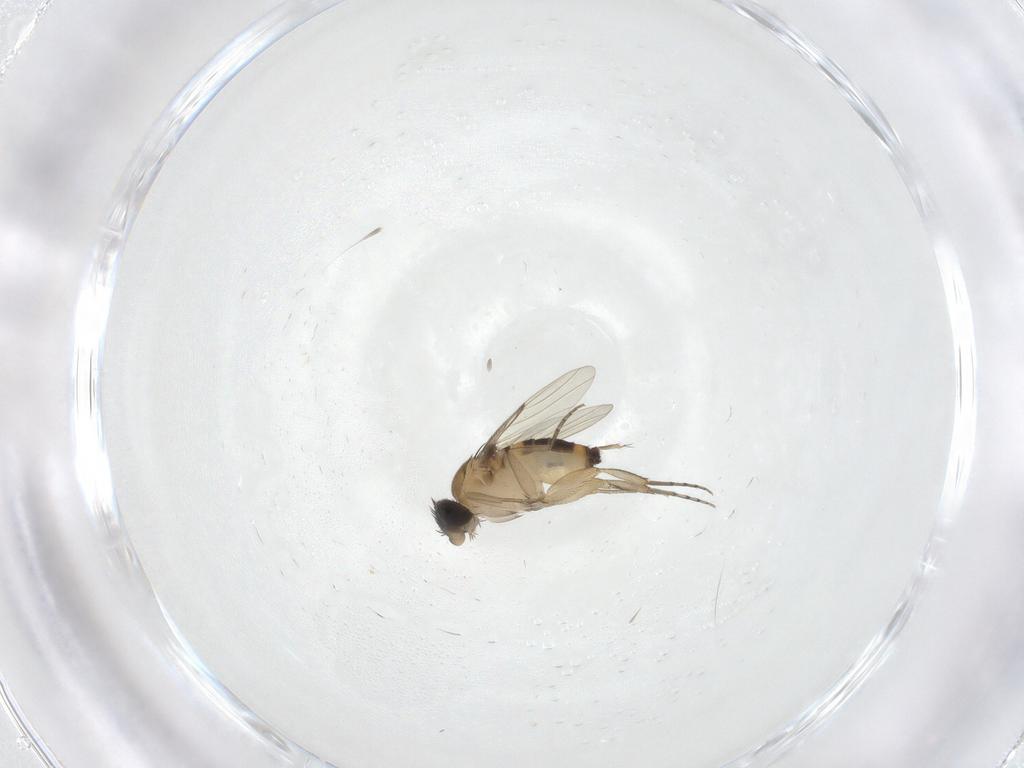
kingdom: Animalia
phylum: Arthropoda
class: Insecta
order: Diptera
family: Phoridae
